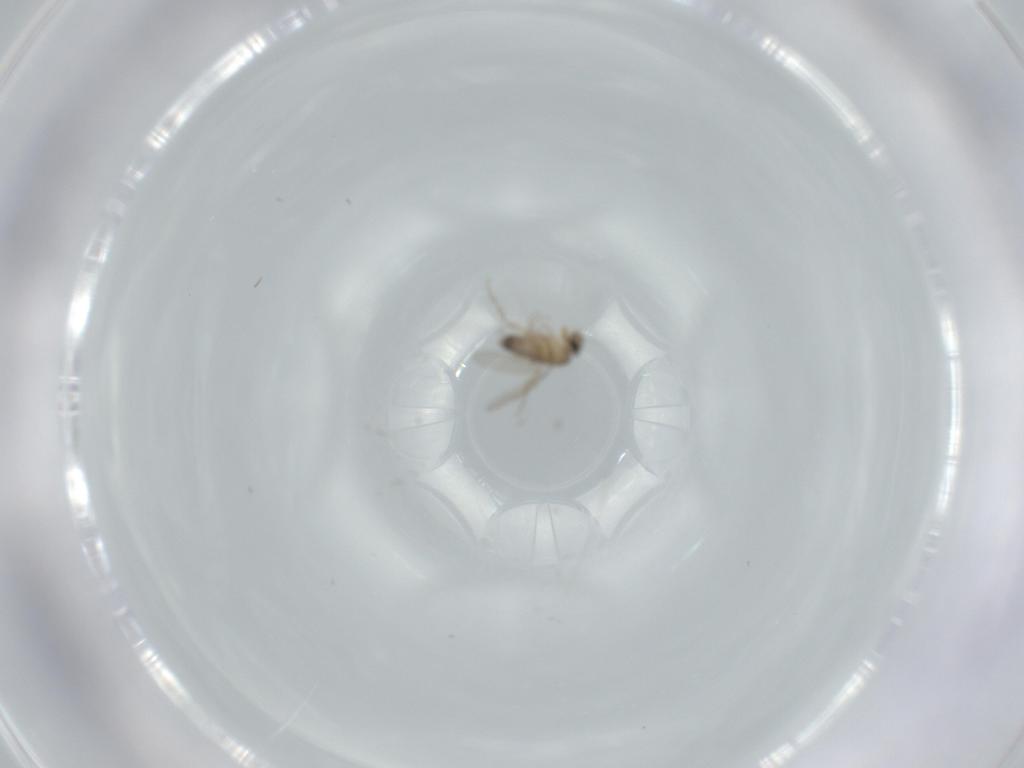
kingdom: Animalia
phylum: Arthropoda
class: Insecta
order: Diptera
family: Phoridae
